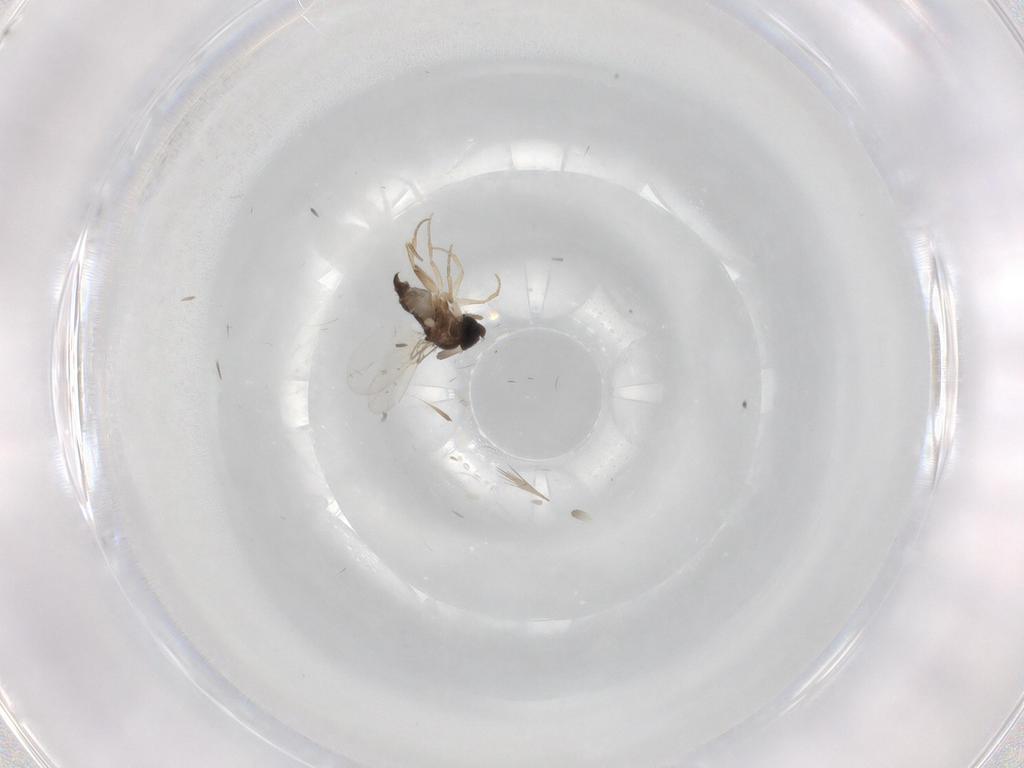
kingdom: Animalia
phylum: Arthropoda
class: Insecta
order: Diptera
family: Phoridae
